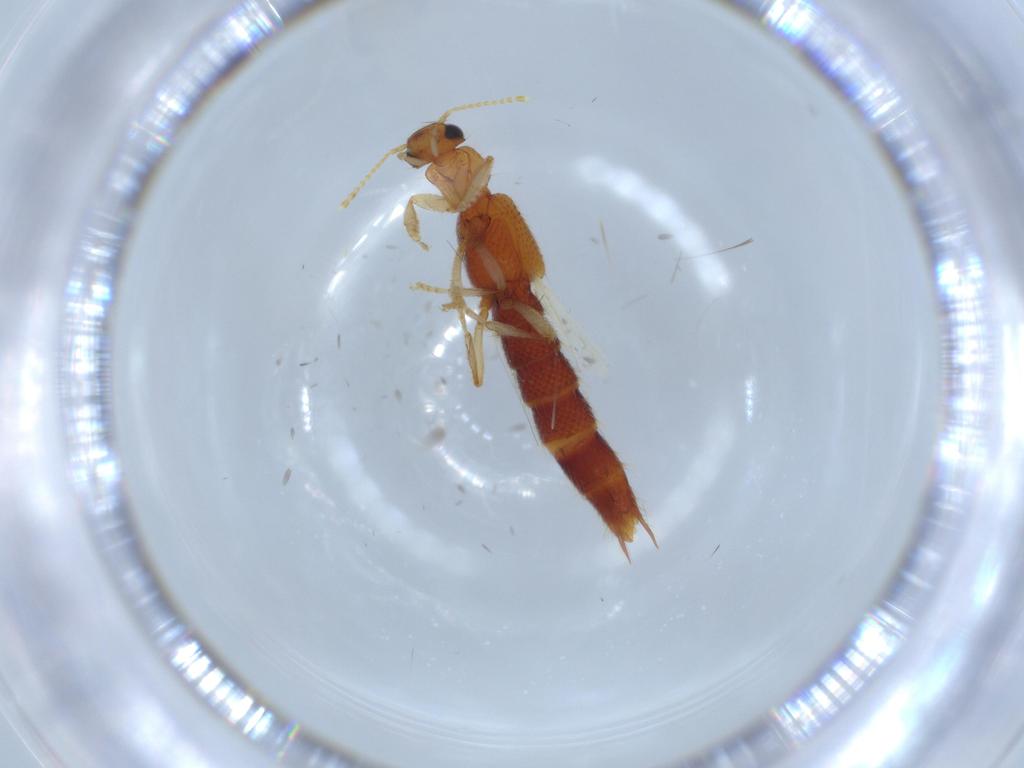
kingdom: Animalia
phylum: Arthropoda
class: Insecta
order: Coleoptera
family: Staphylinidae
